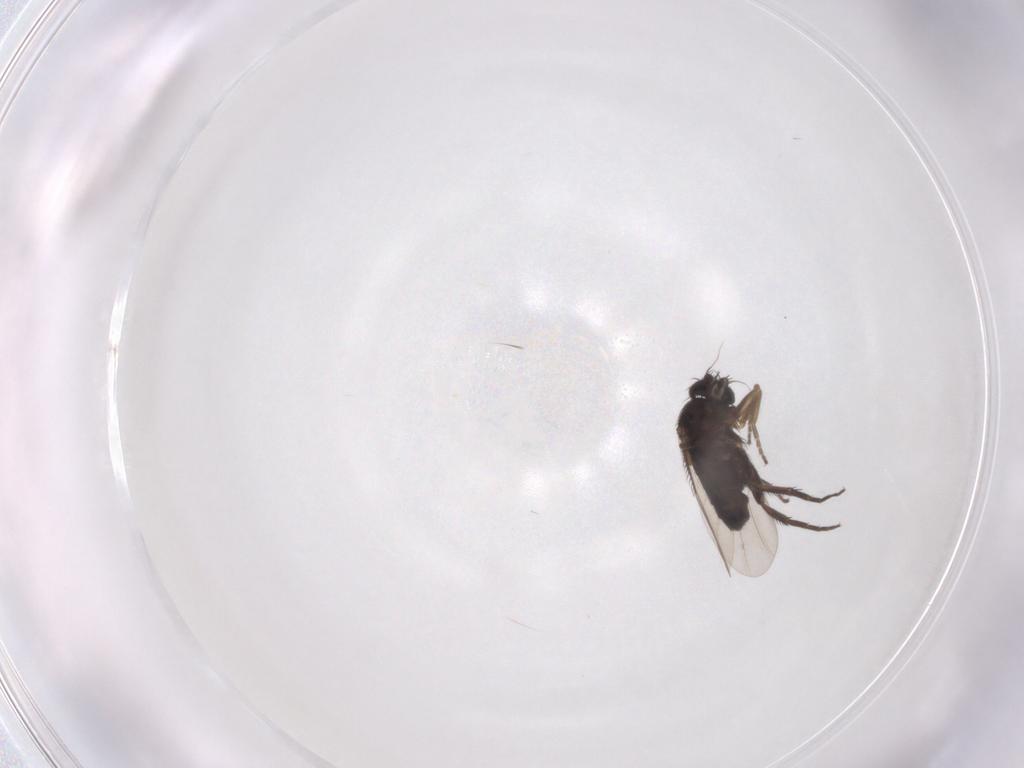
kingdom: Animalia
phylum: Arthropoda
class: Insecta
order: Diptera
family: Phoridae
